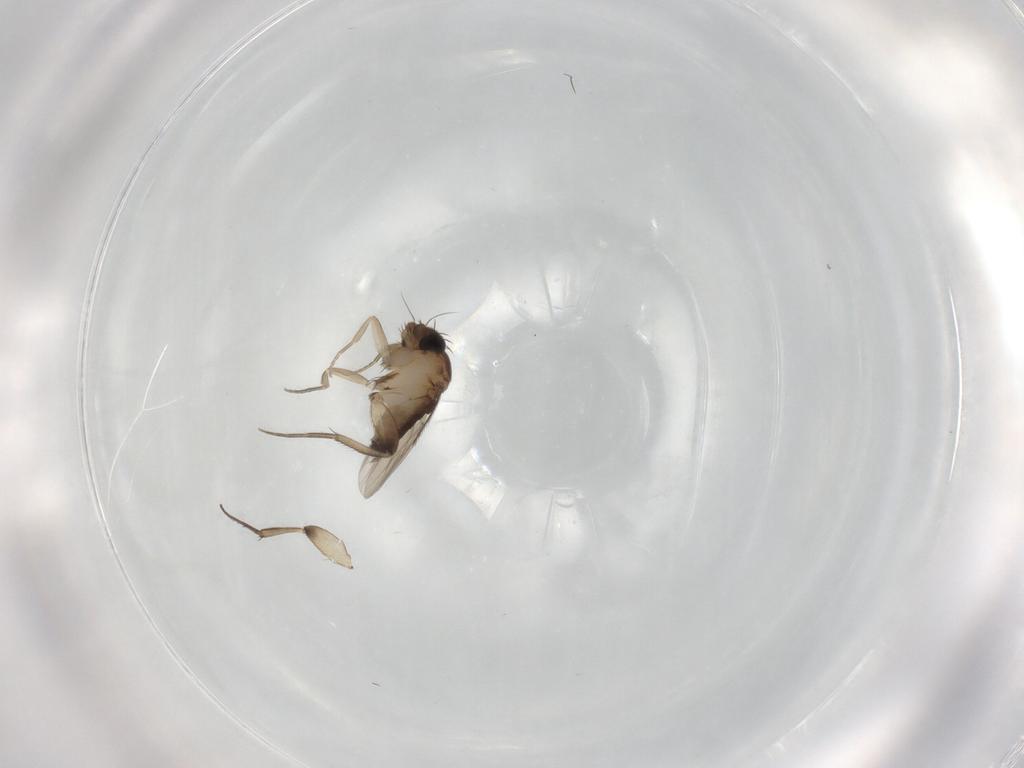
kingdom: Animalia
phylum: Arthropoda
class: Insecta
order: Diptera
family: Phoridae
